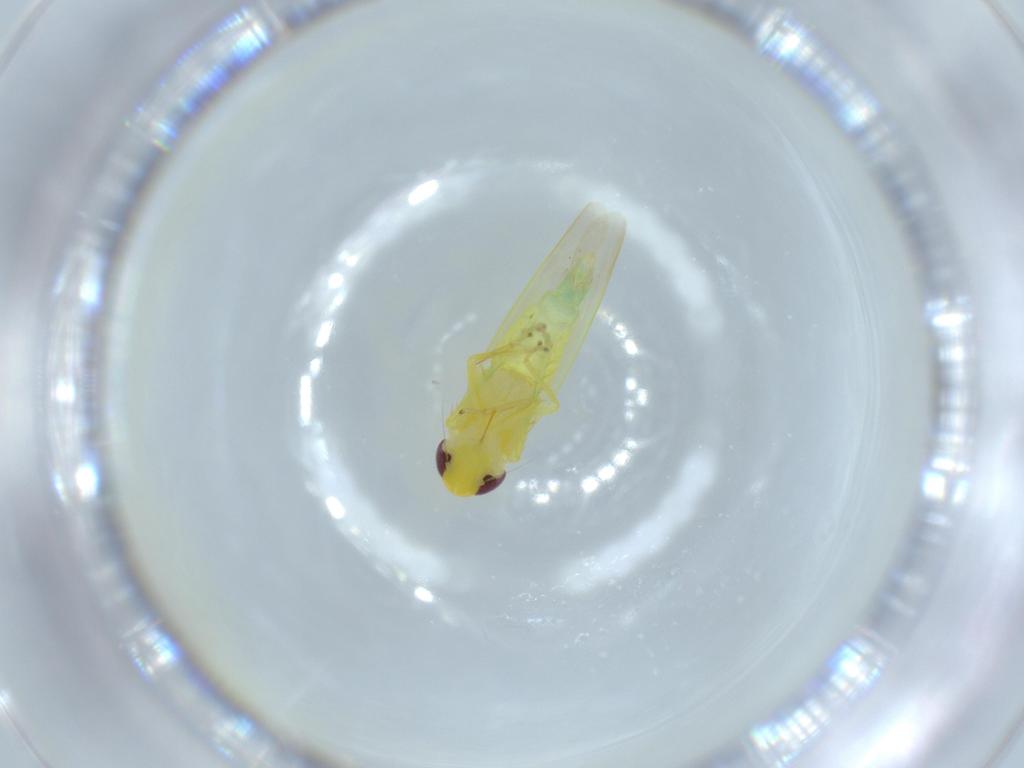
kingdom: Animalia
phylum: Arthropoda
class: Insecta
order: Hemiptera
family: Cicadellidae
